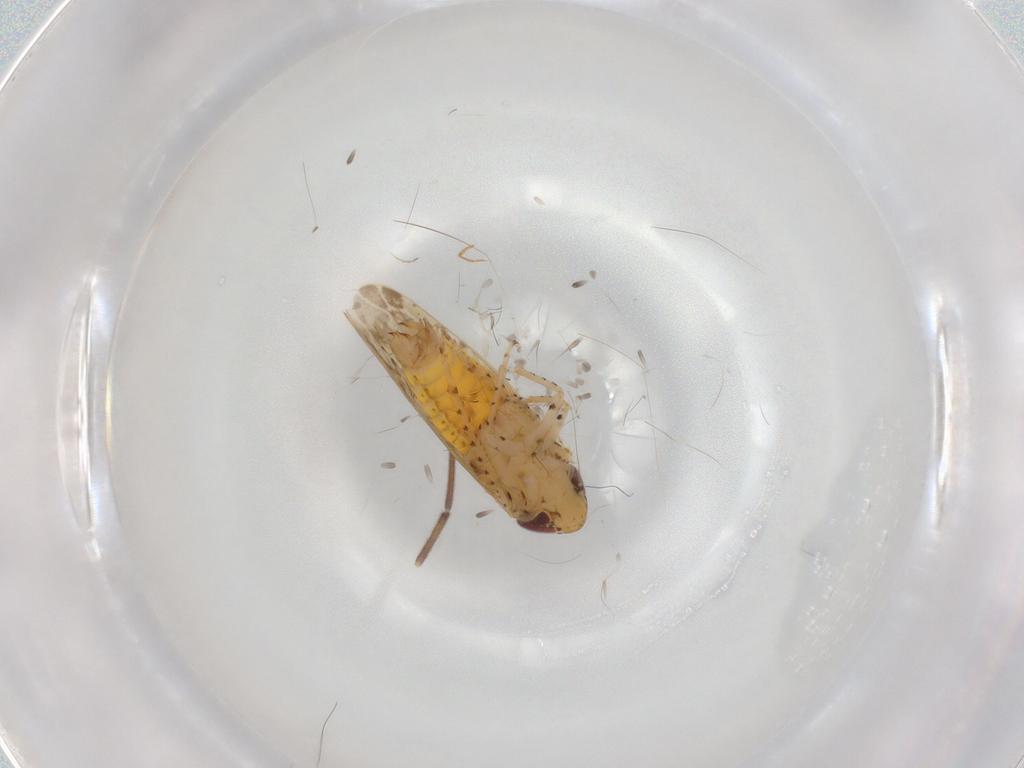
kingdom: Animalia
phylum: Arthropoda
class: Insecta
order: Hemiptera
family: Cicadellidae
